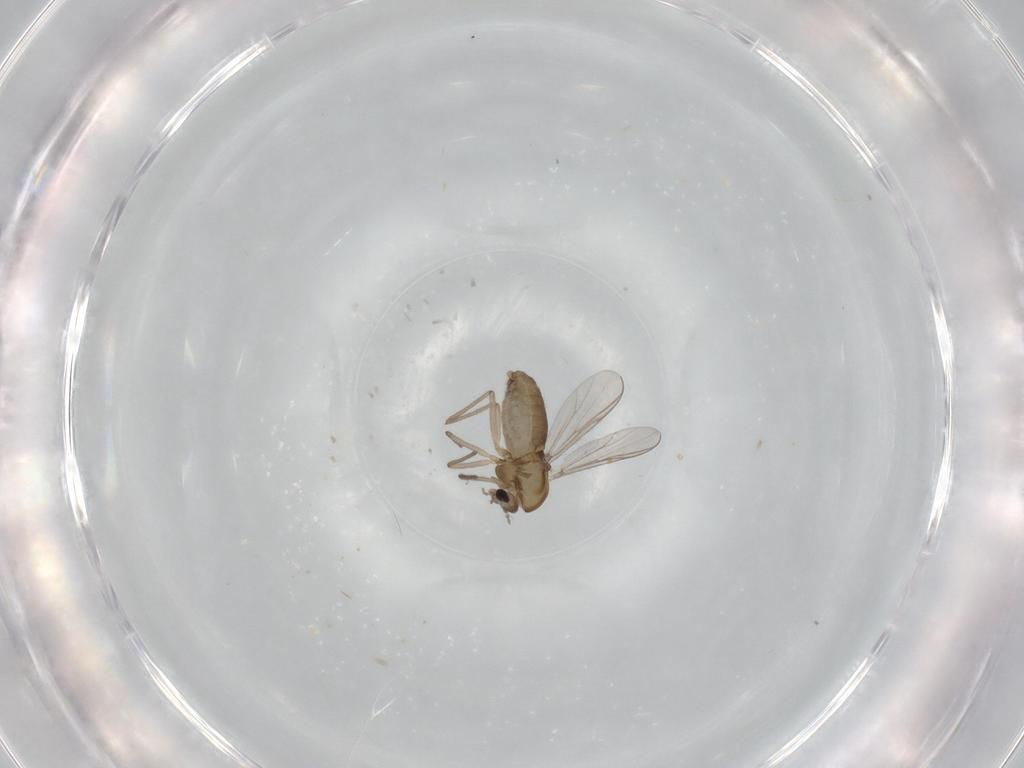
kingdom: Animalia
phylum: Arthropoda
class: Insecta
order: Diptera
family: Chironomidae
